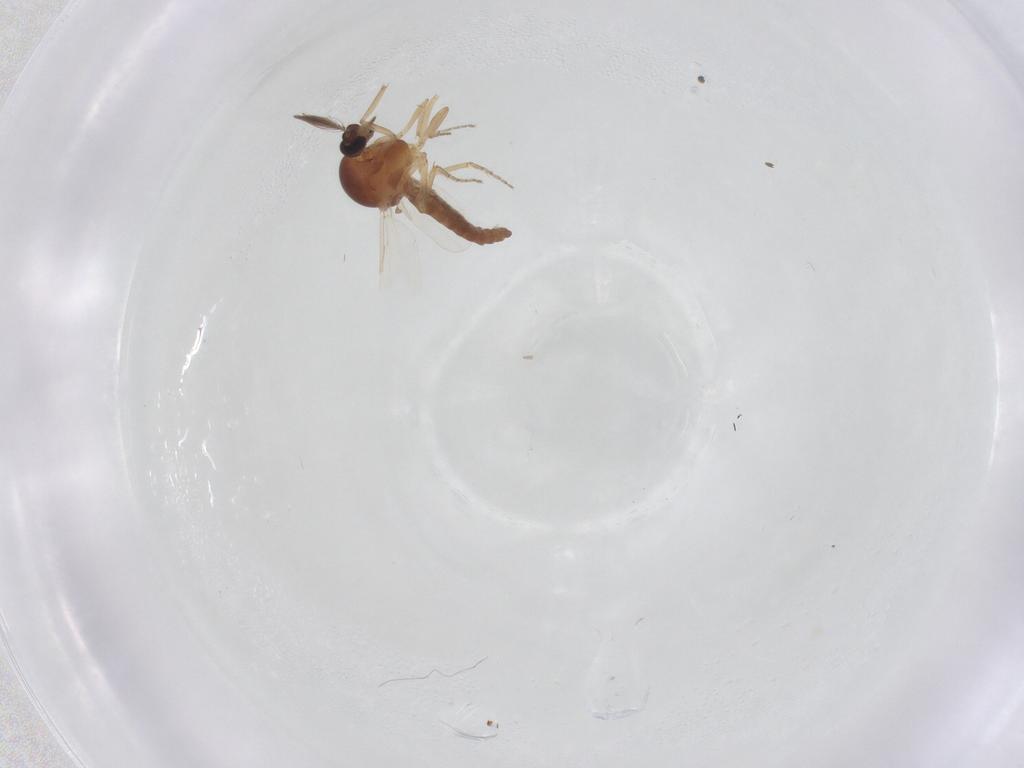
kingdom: Animalia
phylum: Arthropoda
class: Insecta
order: Diptera
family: Ceratopogonidae
